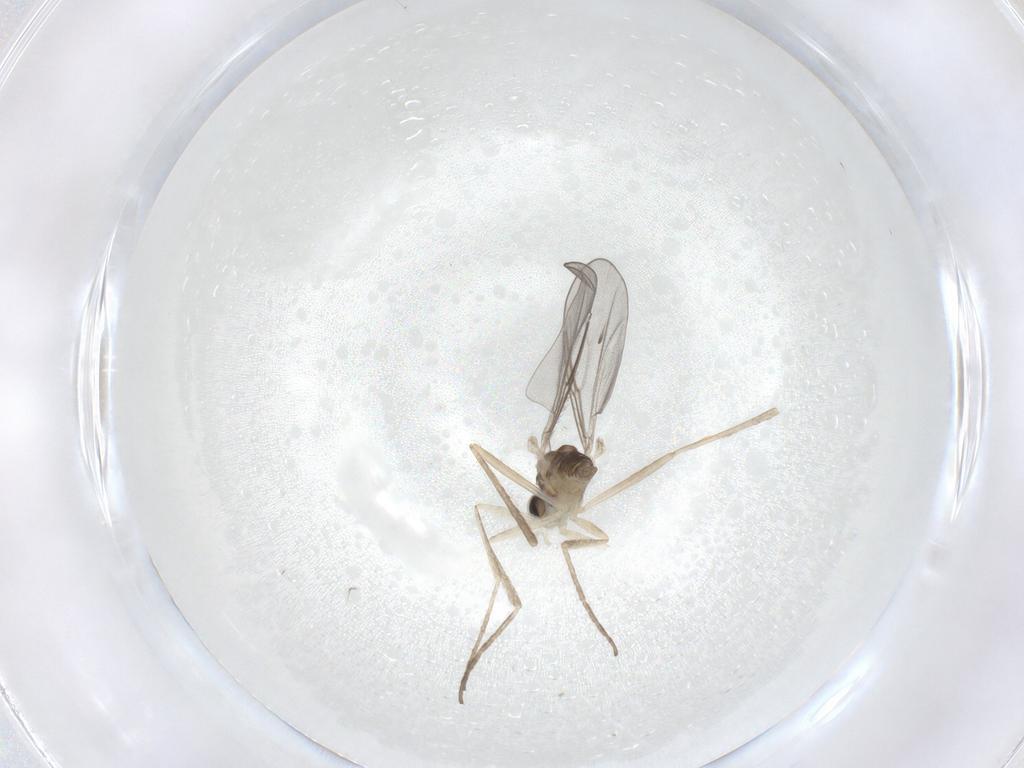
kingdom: Animalia
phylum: Arthropoda
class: Insecta
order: Diptera
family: Cecidomyiidae
